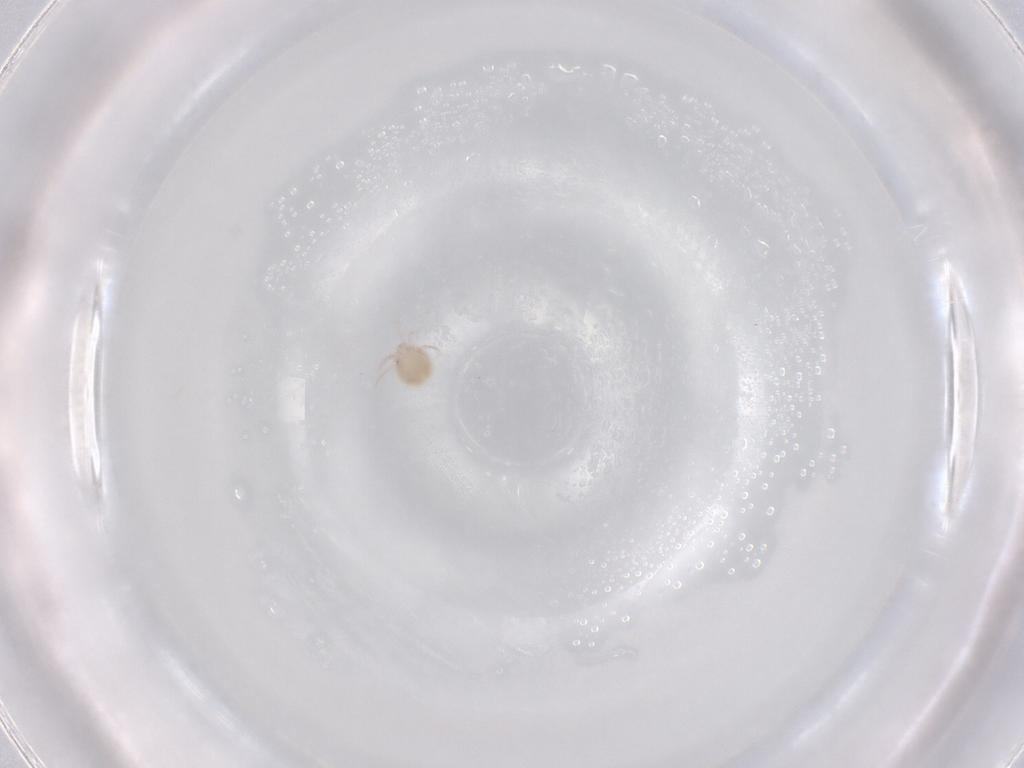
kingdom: Animalia
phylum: Arthropoda
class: Arachnida
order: Trombidiformes
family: Lebertiidae
